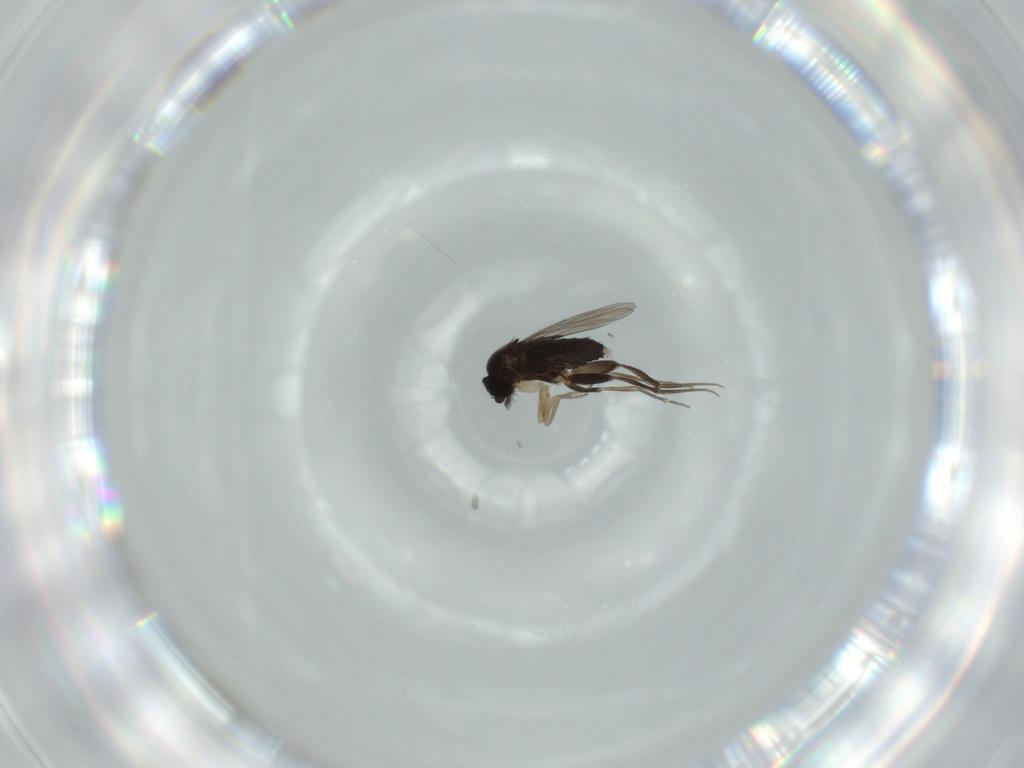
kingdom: Animalia
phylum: Arthropoda
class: Insecta
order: Diptera
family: Phoridae
